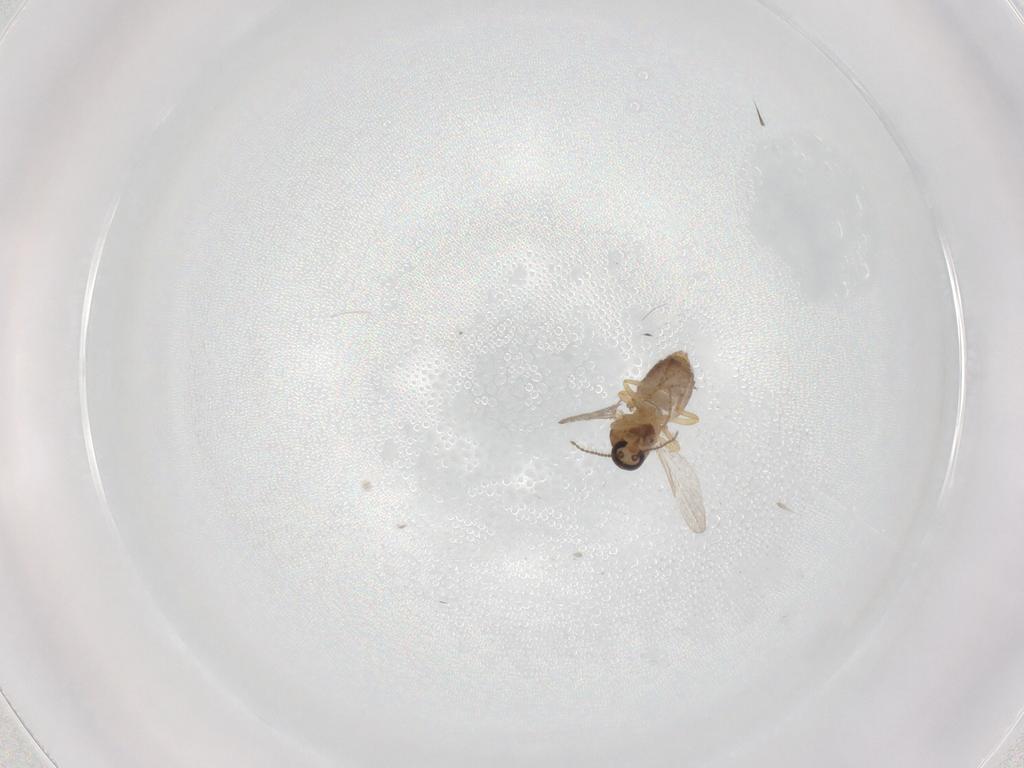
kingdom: Animalia
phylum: Arthropoda
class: Insecta
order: Diptera
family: Ceratopogonidae
